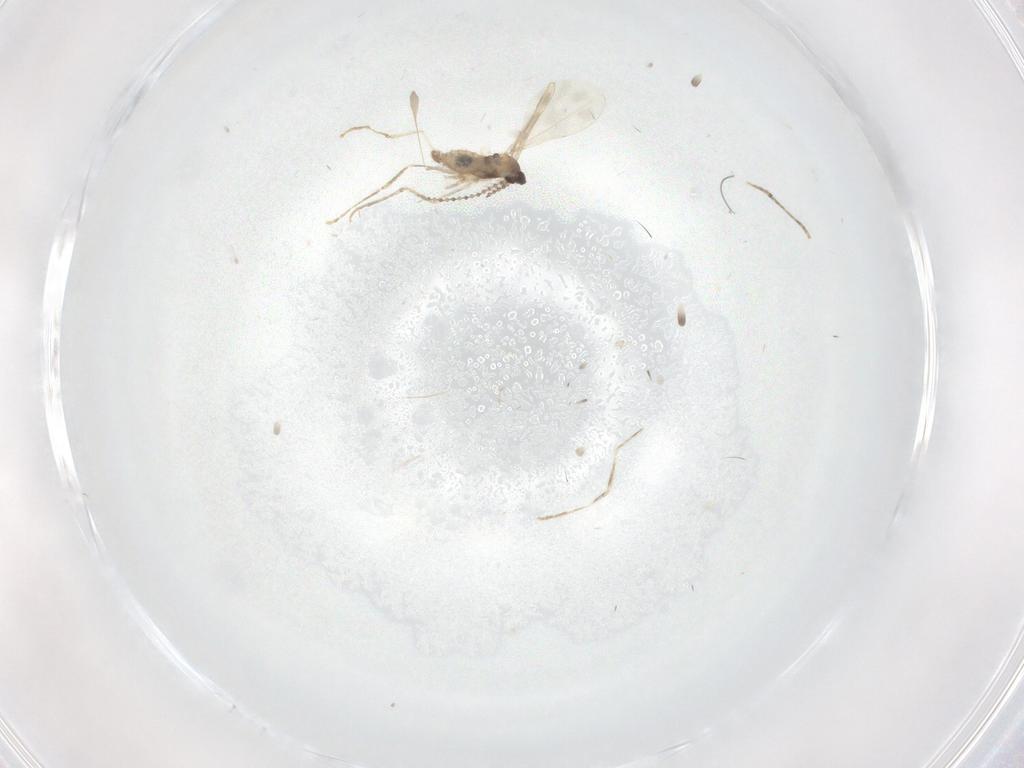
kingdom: Animalia
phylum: Arthropoda
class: Insecta
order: Diptera
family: Cecidomyiidae
